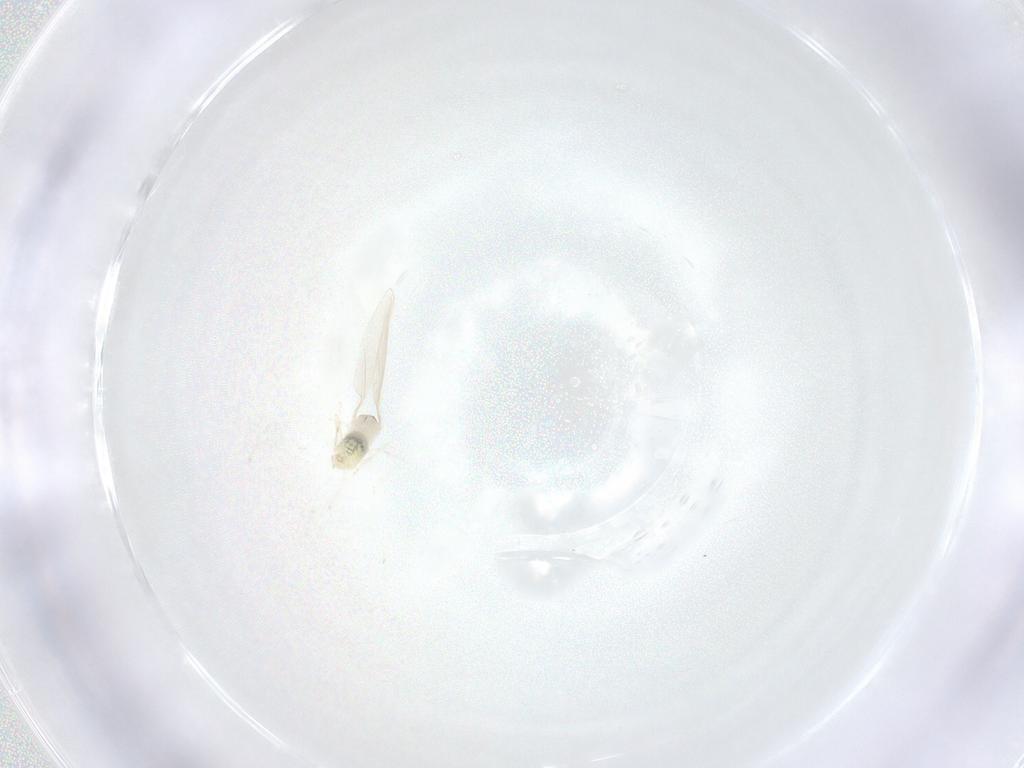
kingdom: Animalia
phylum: Arthropoda
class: Insecta
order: Diptera
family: Cecidomyiidae
